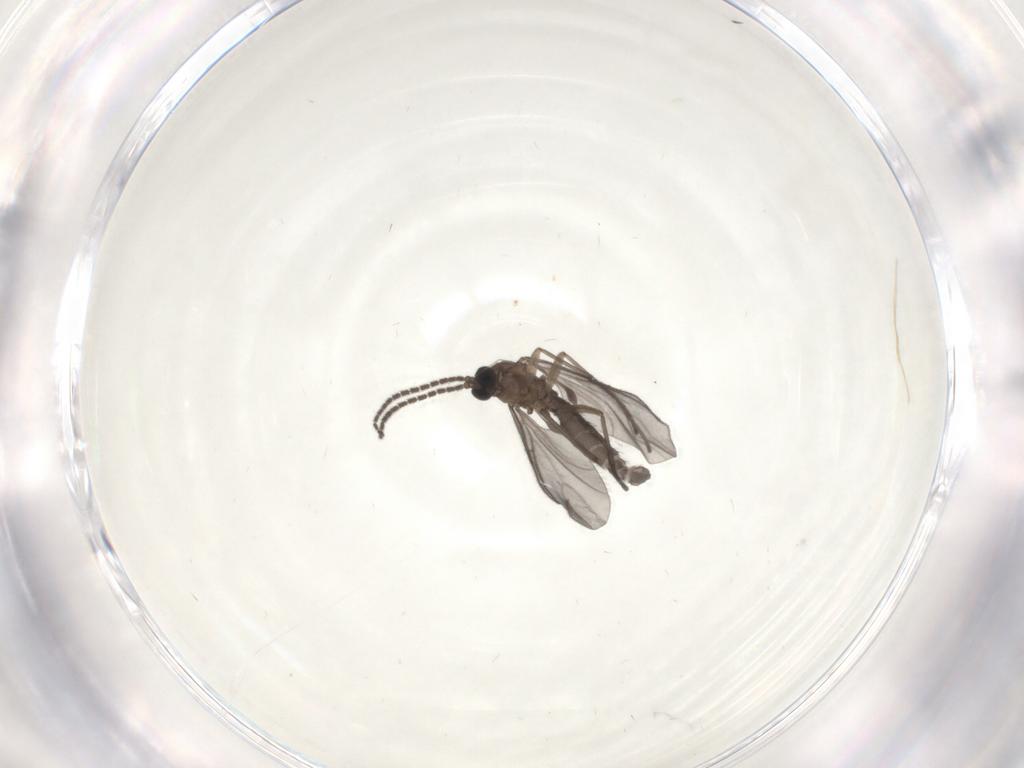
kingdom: Animalia
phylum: Arthropoda
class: Insecta
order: Diptera
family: Sciaridae
